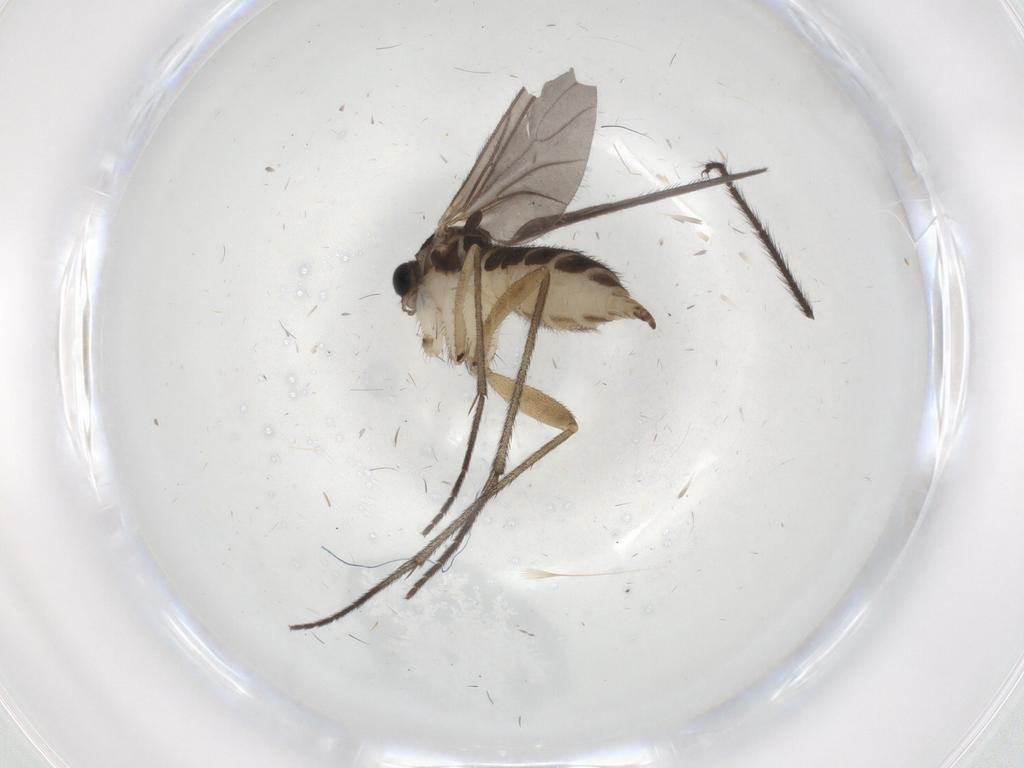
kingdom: Animalia
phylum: Arthropoda
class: Insecta
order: Diptera
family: Sciaridae
